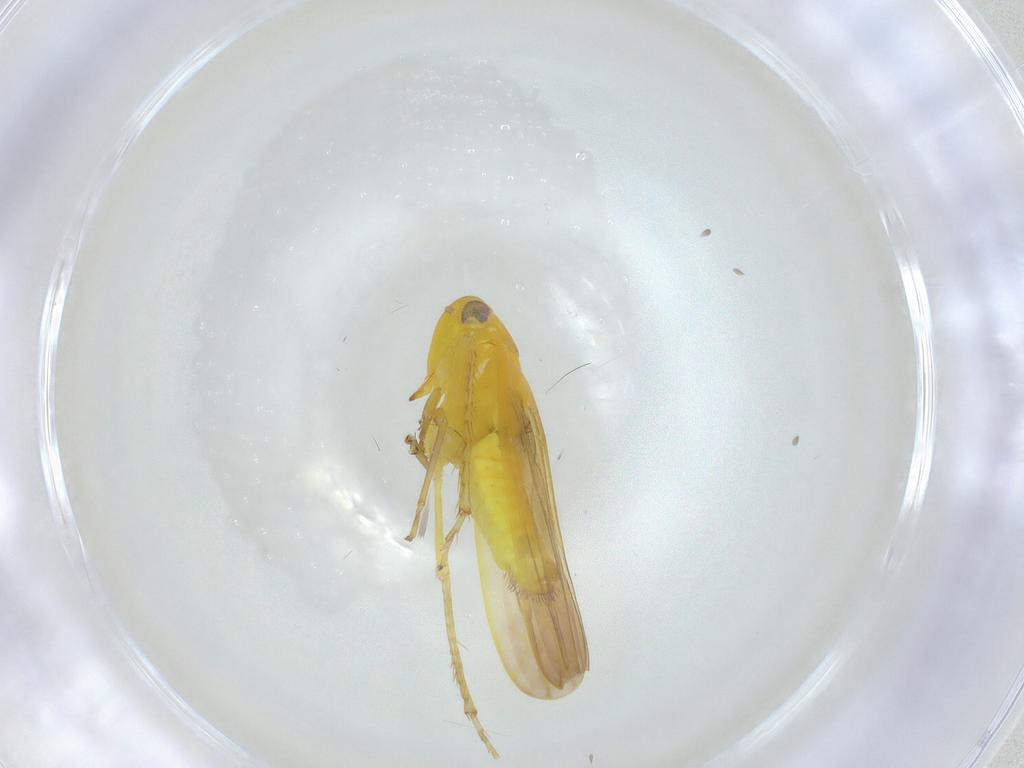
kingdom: Animalia
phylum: Arthropoda
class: Insecta
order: Hemiptera
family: Cicadellidae
